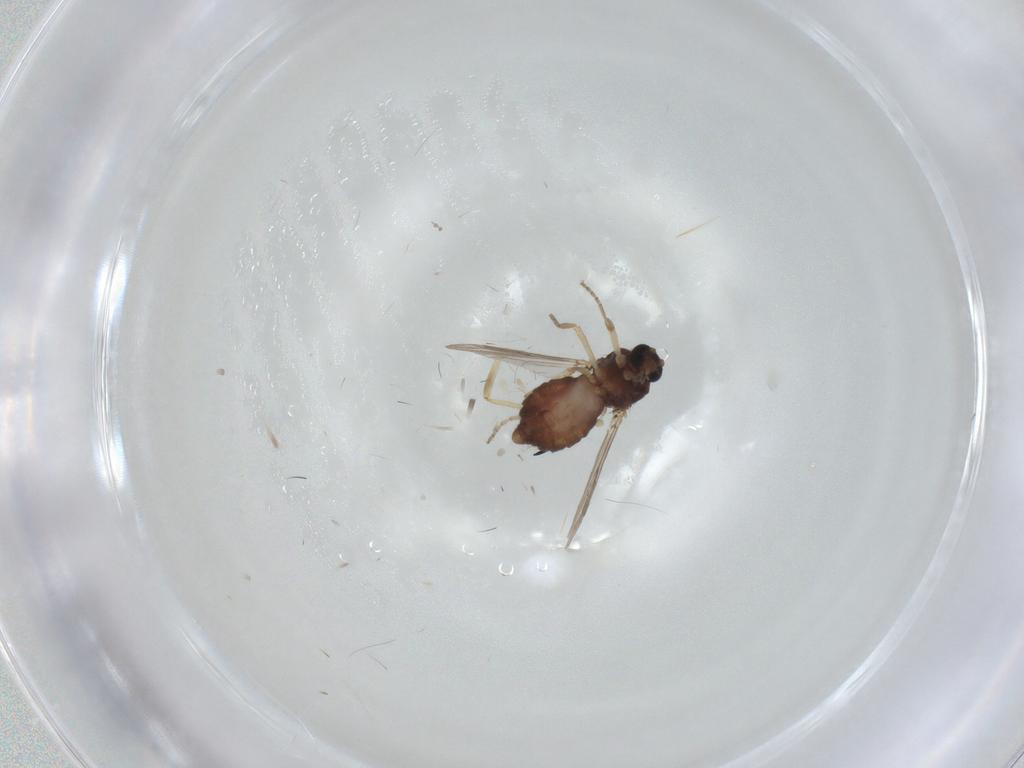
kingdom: Animalia
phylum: Arthropoda
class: Insecta
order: Diptera
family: Ceratopogonidae
